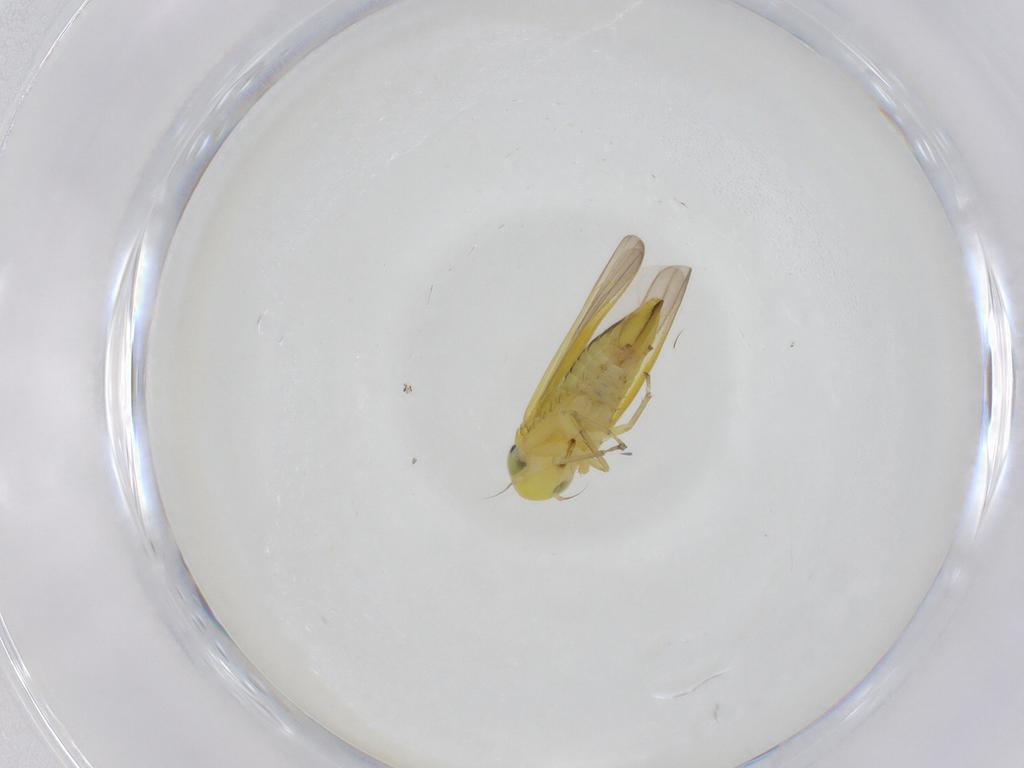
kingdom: Animalia
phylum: Arthropoda
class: Insecta
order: Hemiptera
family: Cicadellidae
